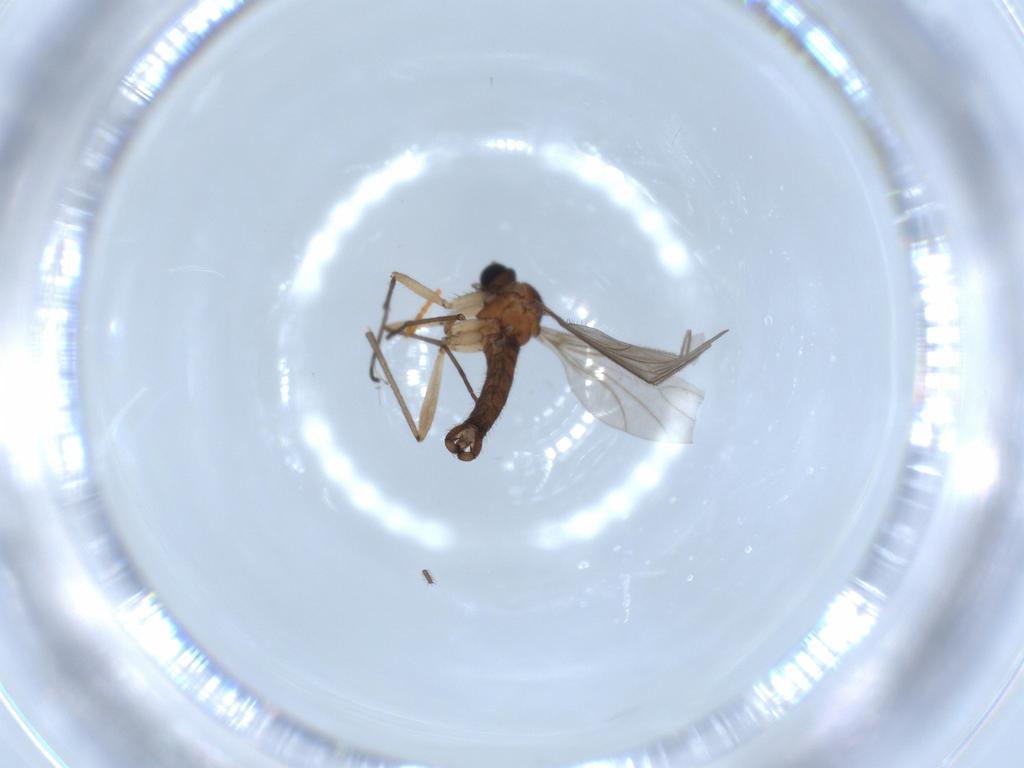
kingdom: Animalia
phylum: Arthropoda
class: Insecta
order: Diptera
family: Sciaridae
